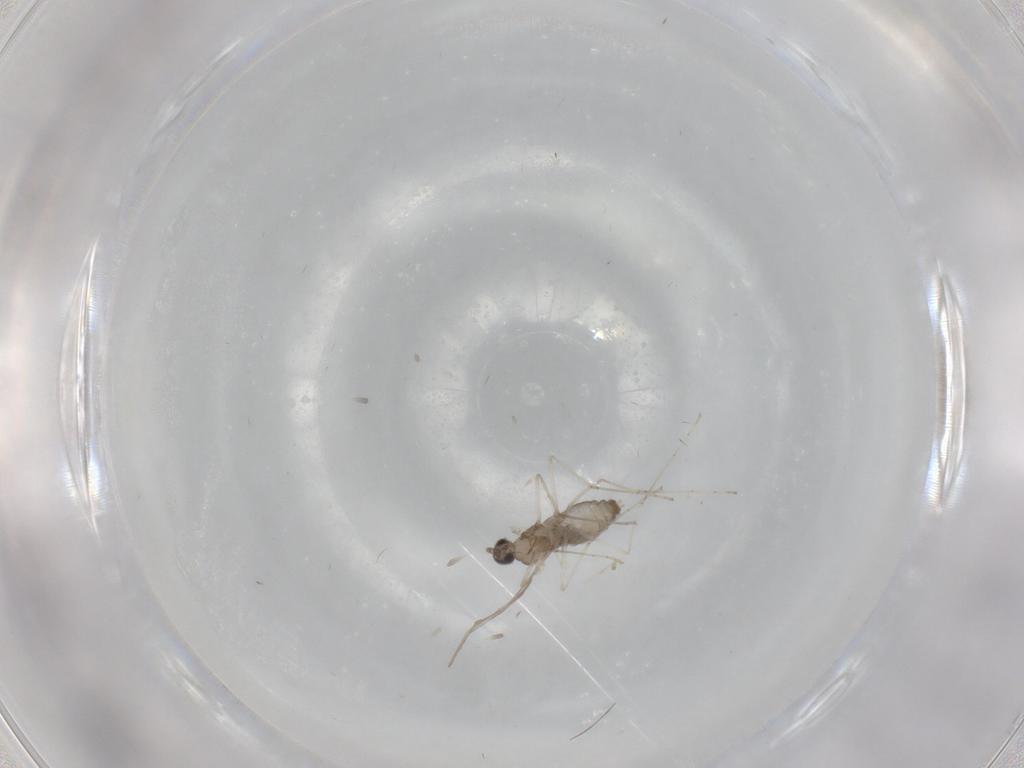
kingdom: Animalia
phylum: Arthropoda
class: Insecta
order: Diptera
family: Cecidomyiidae
